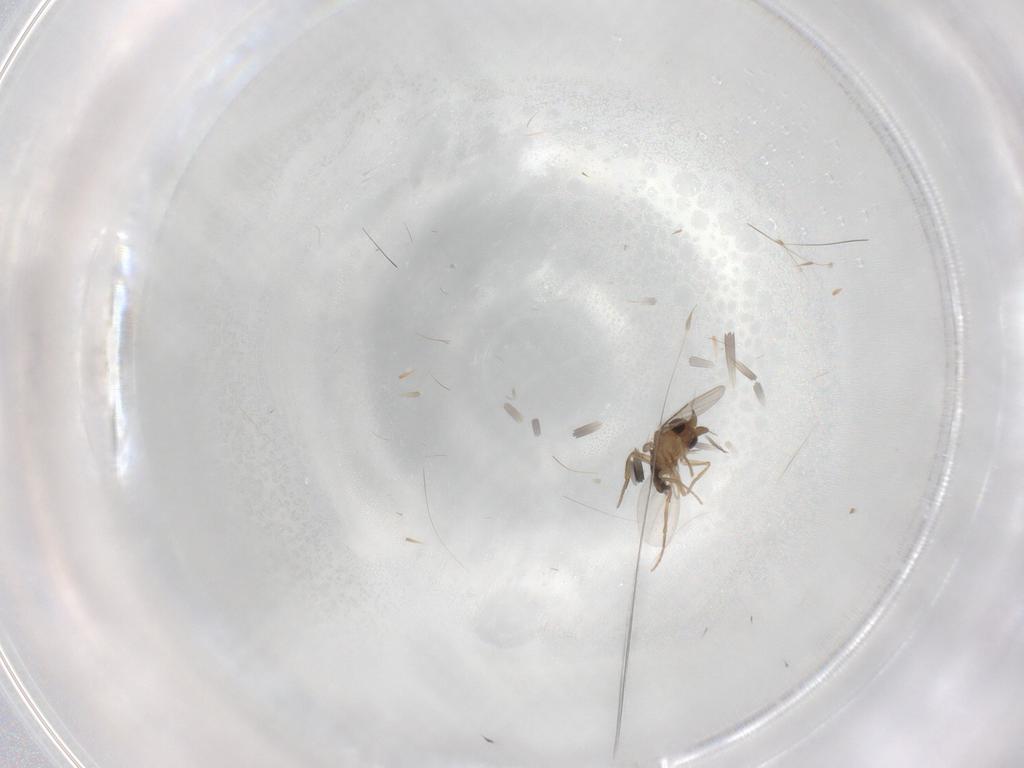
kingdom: Animalia
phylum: Arthropoda
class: Insecta
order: Diptera
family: Phoridae
